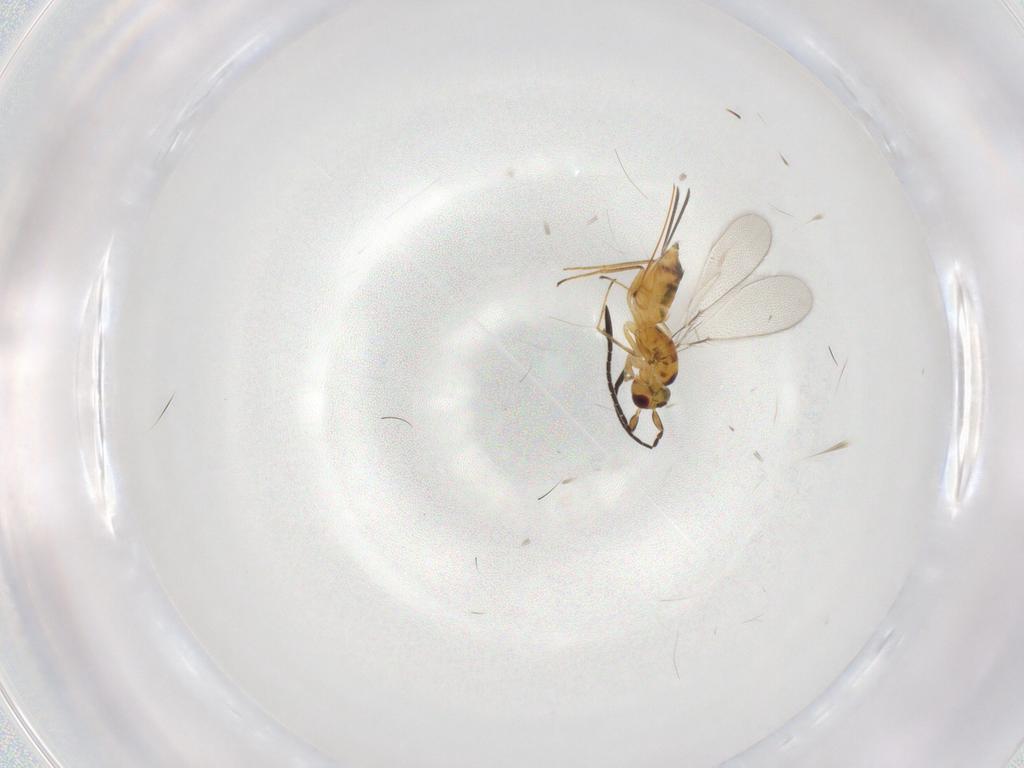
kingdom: Animalia
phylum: Arthropoda
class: Insecta
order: Hymenoptera
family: Mymaridae
